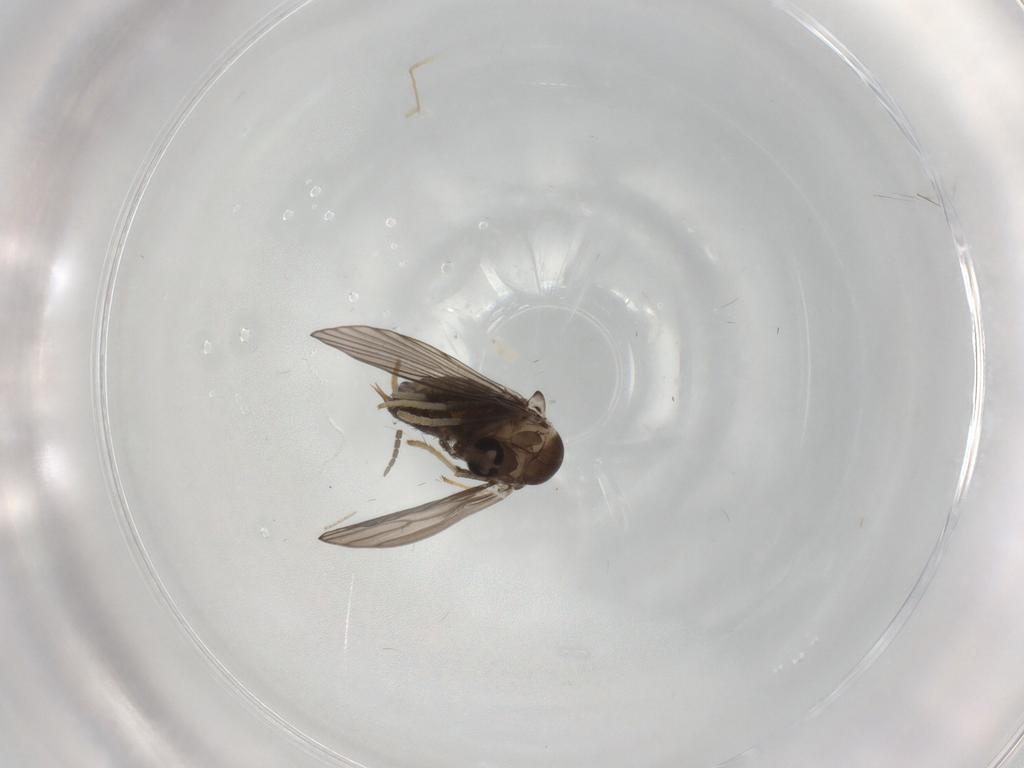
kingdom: Animalia
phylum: Arthropoda
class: Insecta
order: Diptera
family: Psychodidae
